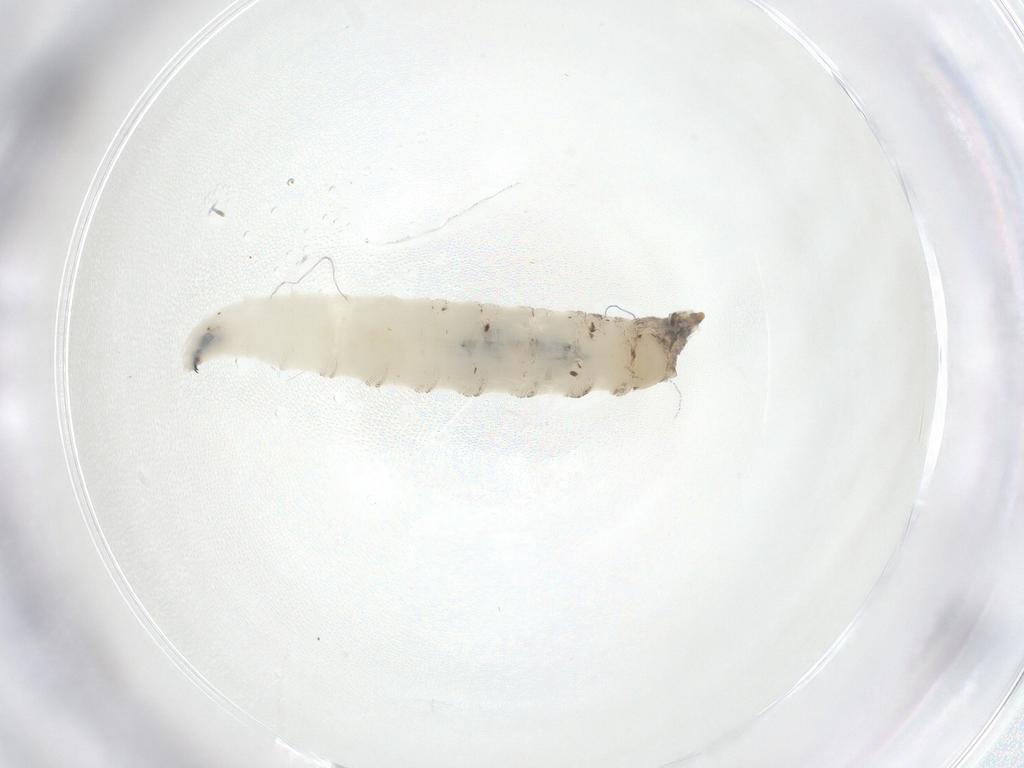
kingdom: Animalia
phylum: Arthropoda
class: Insecta
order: Diptera
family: Drosophilidae
